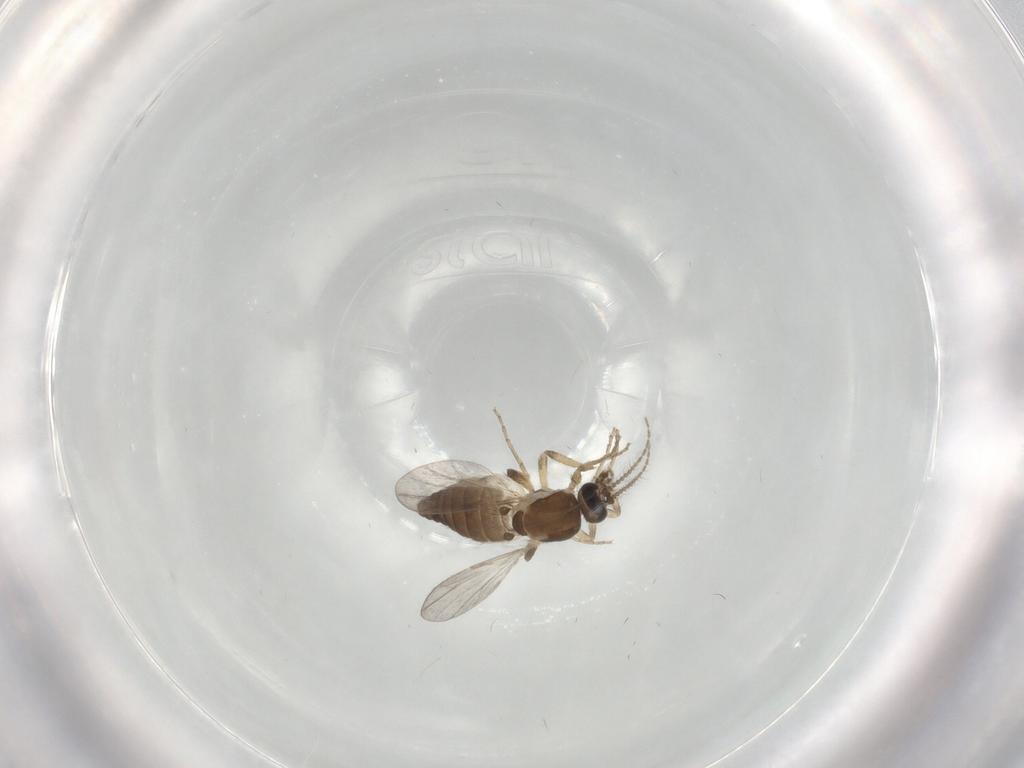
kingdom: Animalia
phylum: Arthropoda
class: Insecta
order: Diptera
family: Ceratopogonidae
